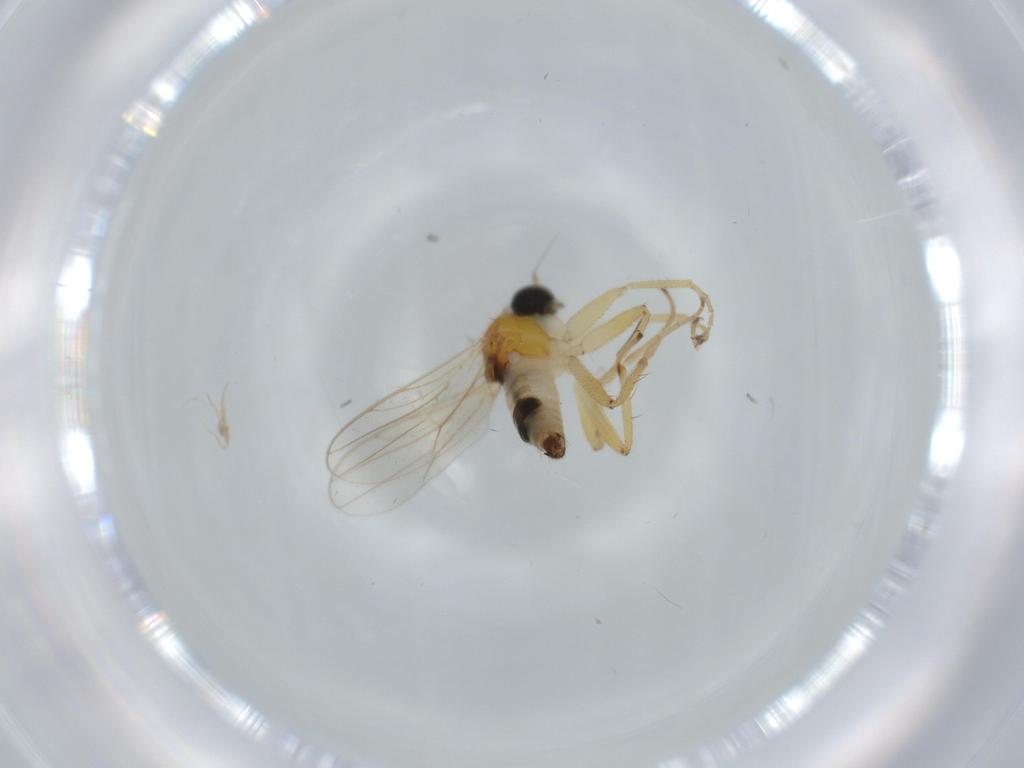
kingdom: Animalia
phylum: Arthropoda
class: Insecta
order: Diptera
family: Hybotidae
